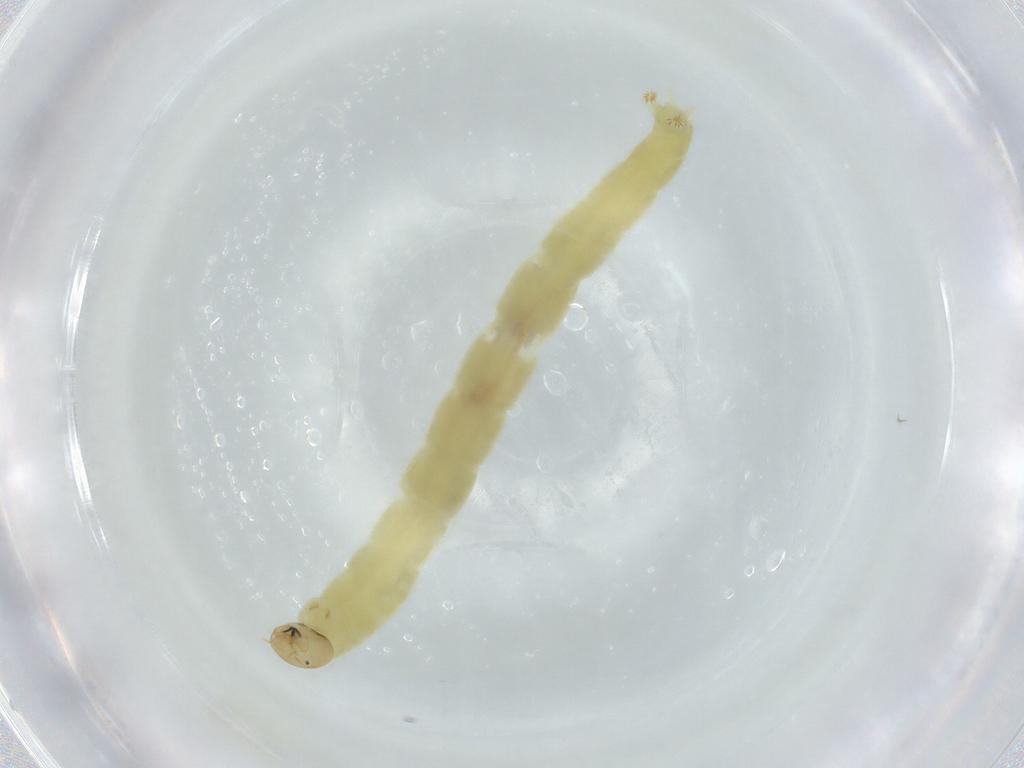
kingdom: Animalia
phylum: Arthropoda
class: Insecta
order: Diptera
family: Chironomidae
